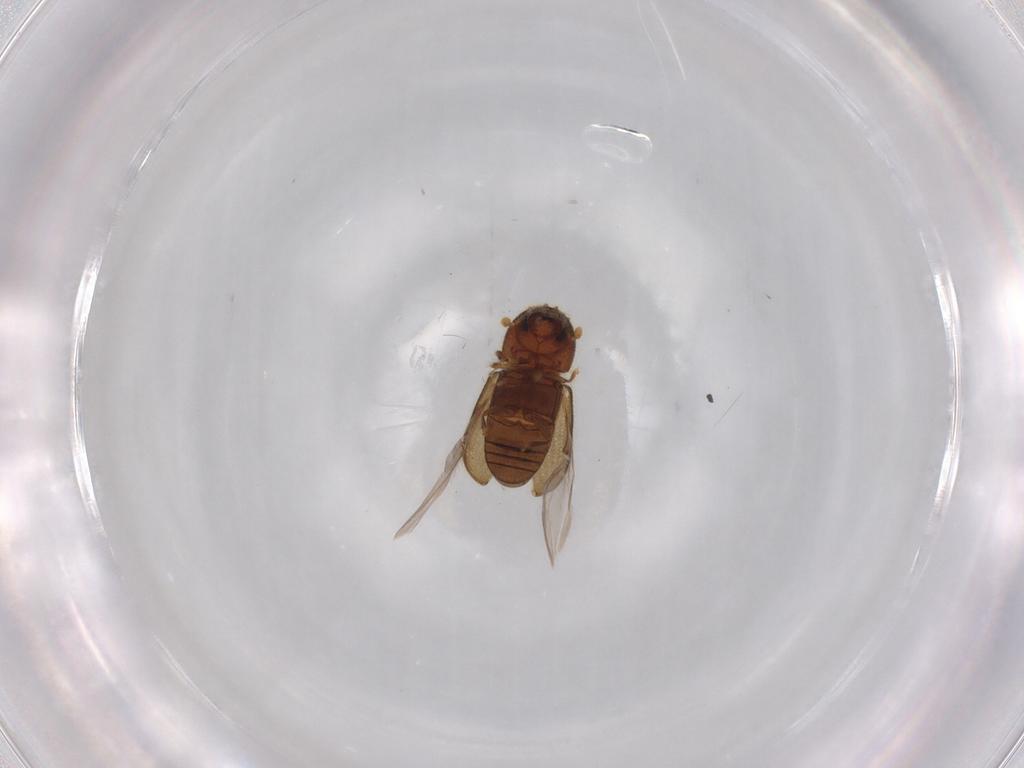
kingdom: Animalia
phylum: Arthropoda
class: Insecta
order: Coleoptera
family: Curculionidae
